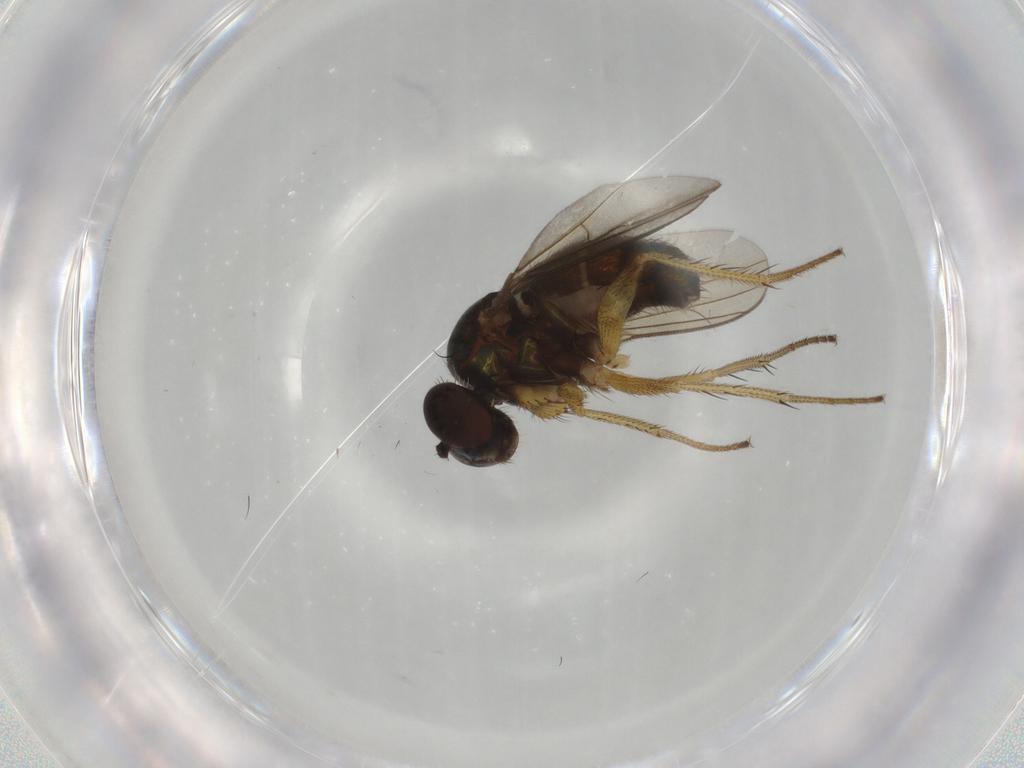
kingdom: Animalia
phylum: Arthropoda
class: Insecta
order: Diptera
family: Dolichopodidae
